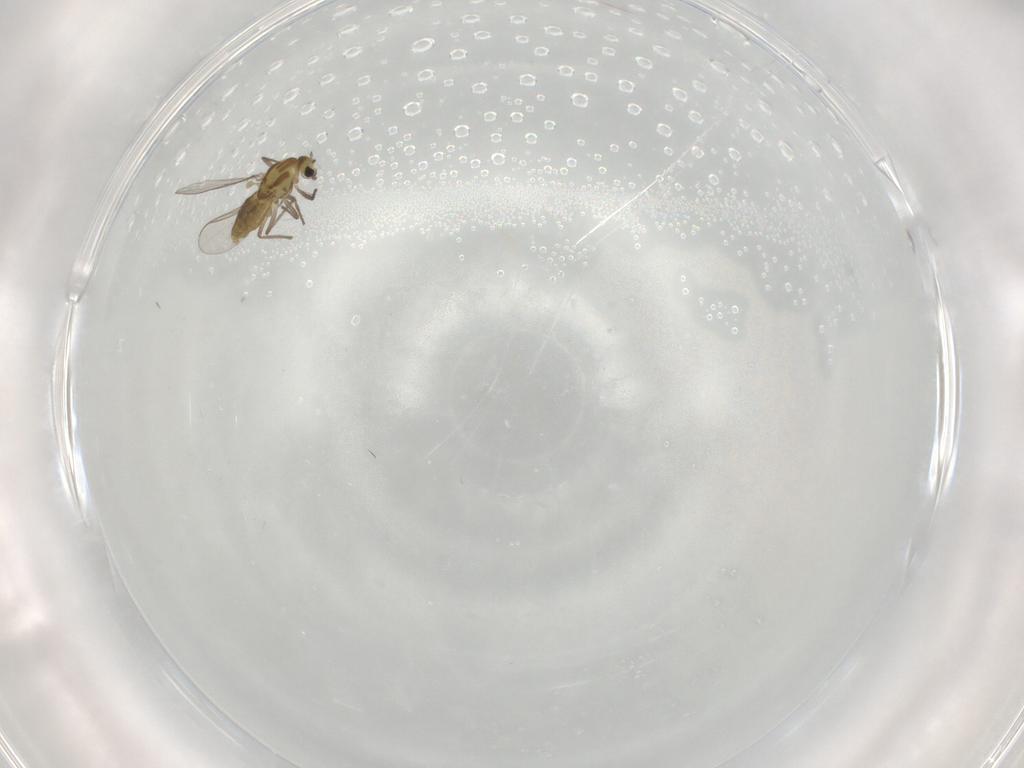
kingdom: Animalia
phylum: Arthropoda
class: Insecta
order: Diptera
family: Chironomidae
